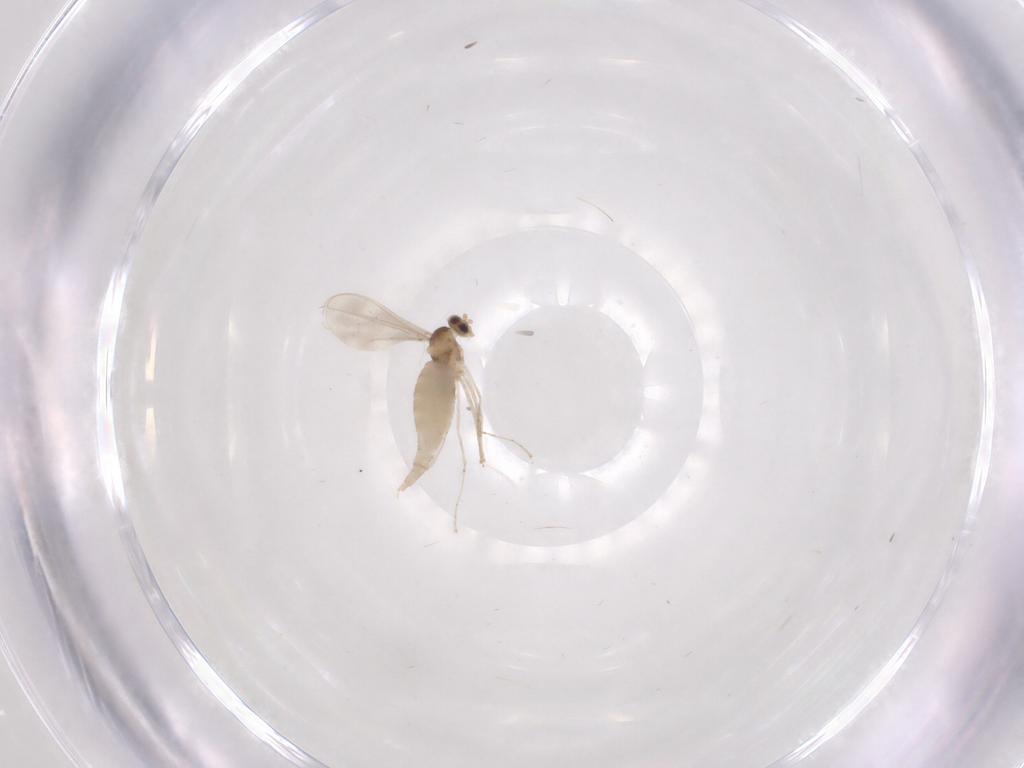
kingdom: Animalia
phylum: Arthropoda
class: Insecta
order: Diptera
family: Cecidomyiidae
